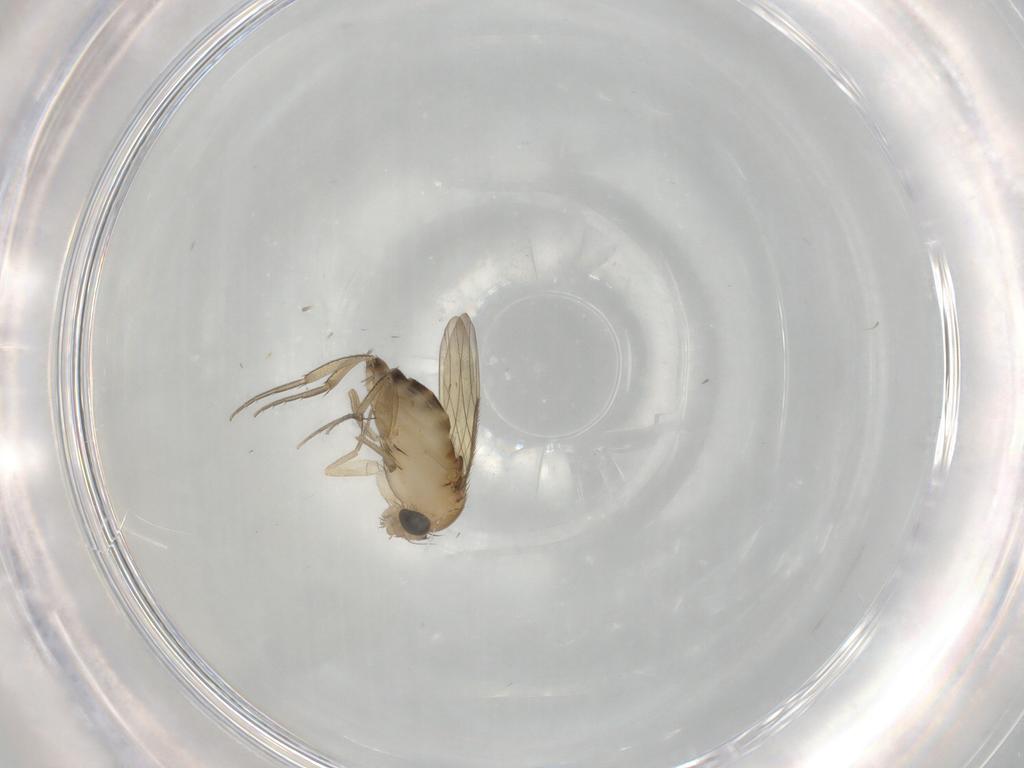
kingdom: Animalia
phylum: Arthropoda
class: Insecta
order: Diptera
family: Phoridae
